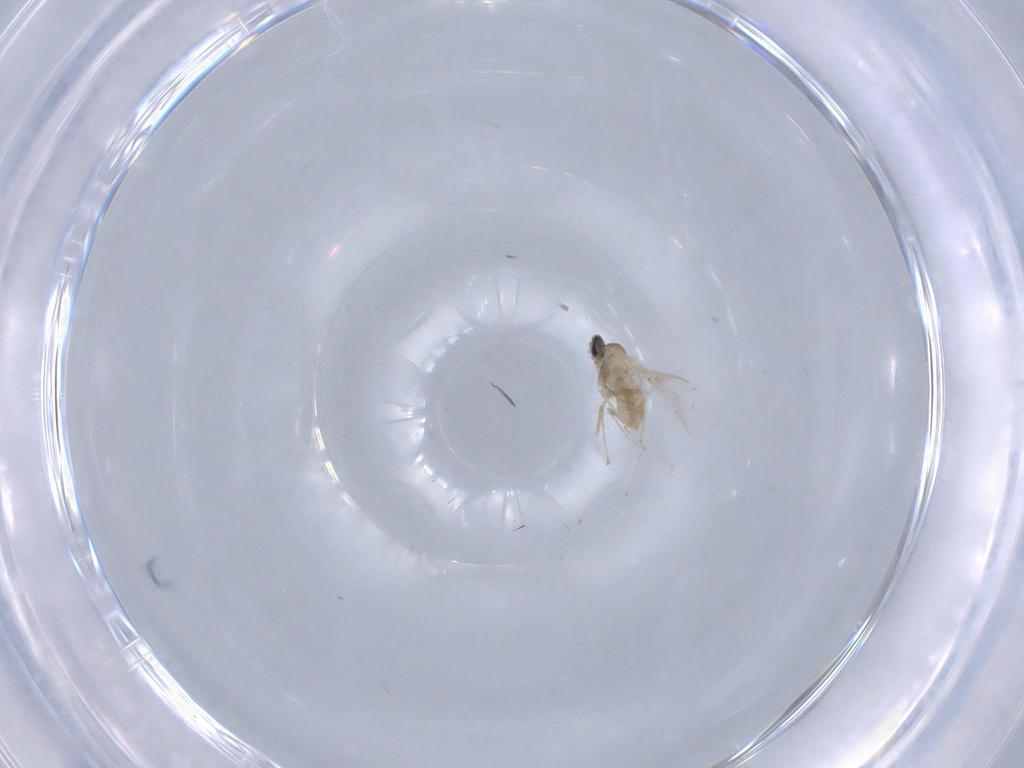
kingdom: Animalia
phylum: Arthropoda
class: Insecta
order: Diptera
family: Cecidomyiidae
